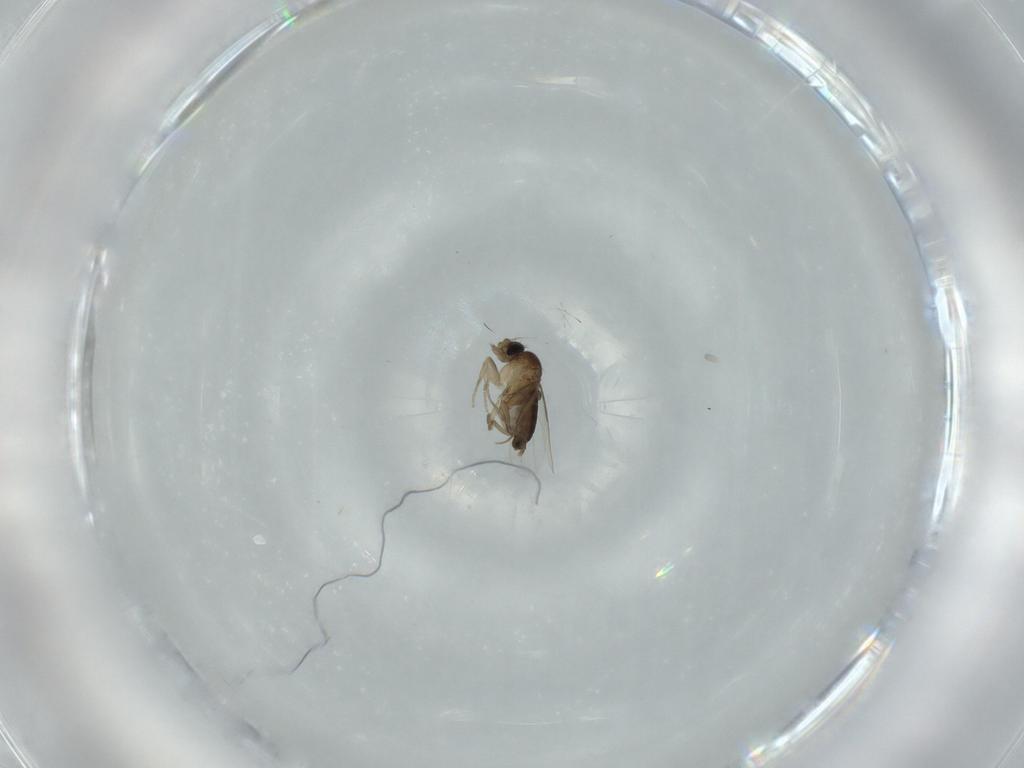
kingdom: Animalia
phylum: Arthropoda
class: Insecta
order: Diptera
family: Phoridae
